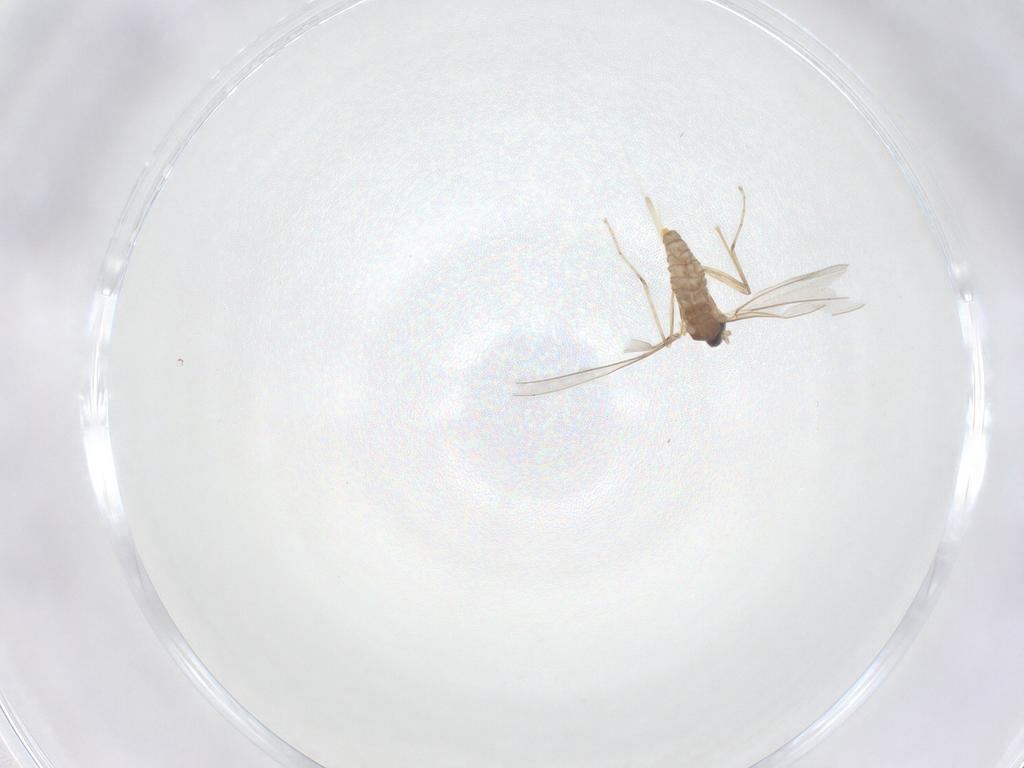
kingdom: Animalia
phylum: Arthropoda
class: Insecta
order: Diptera
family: Cecidomyiidae
